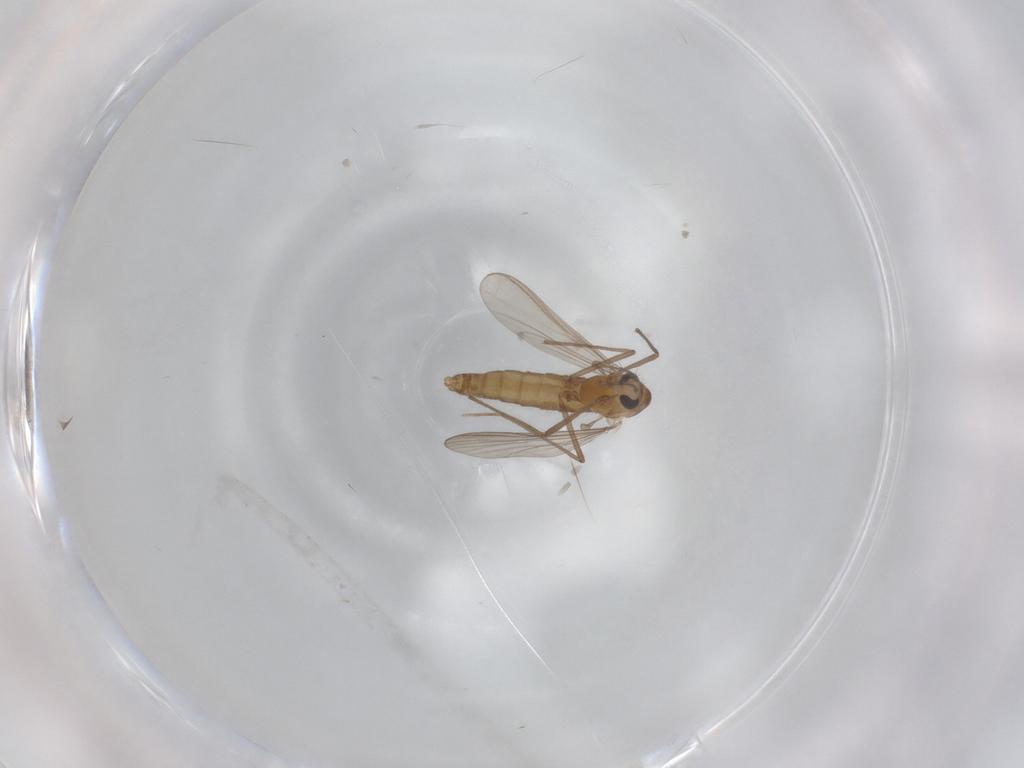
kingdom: Animalia
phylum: Arthropoda
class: Insecta
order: Diptera
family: Chironomidae
